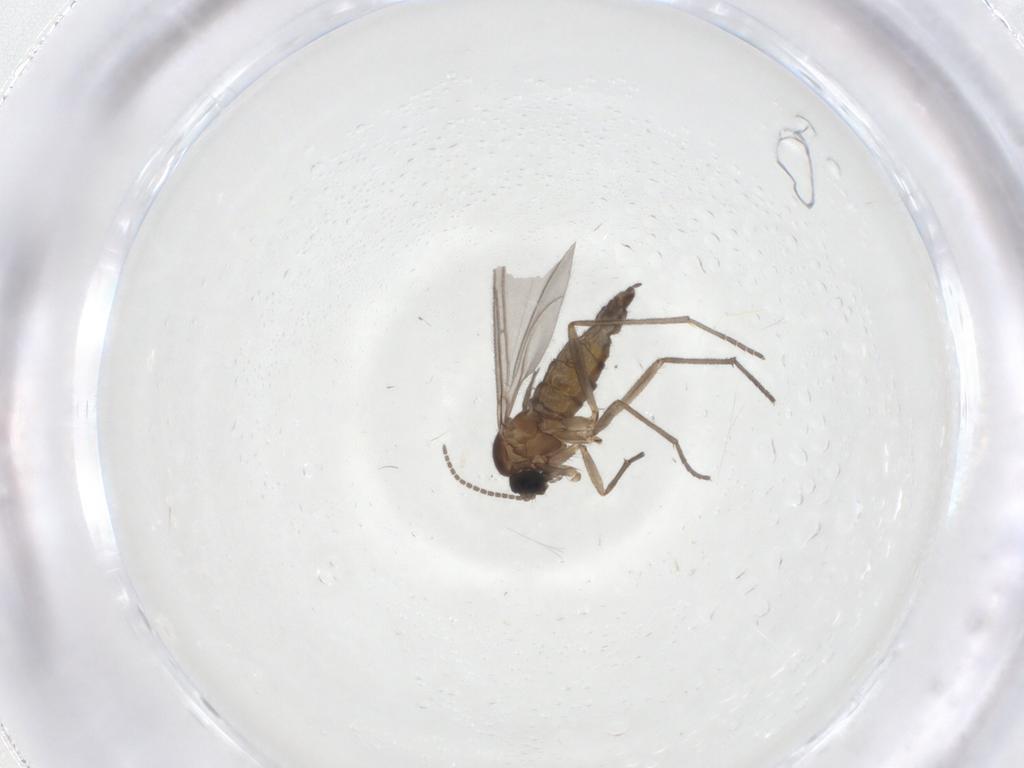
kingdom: Animalia
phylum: Arthropoda
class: Insecta
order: Diptera
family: Sciaridae
